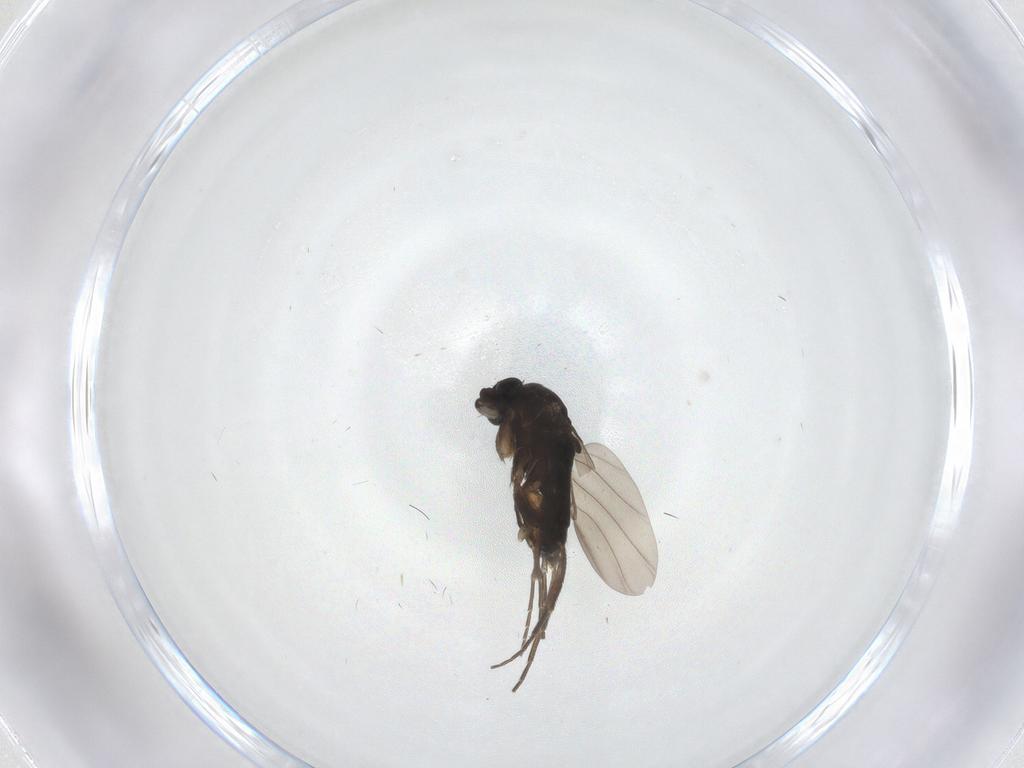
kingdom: Animalia
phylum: Arthropoda
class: Insecta
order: Diptera
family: Phoridae
